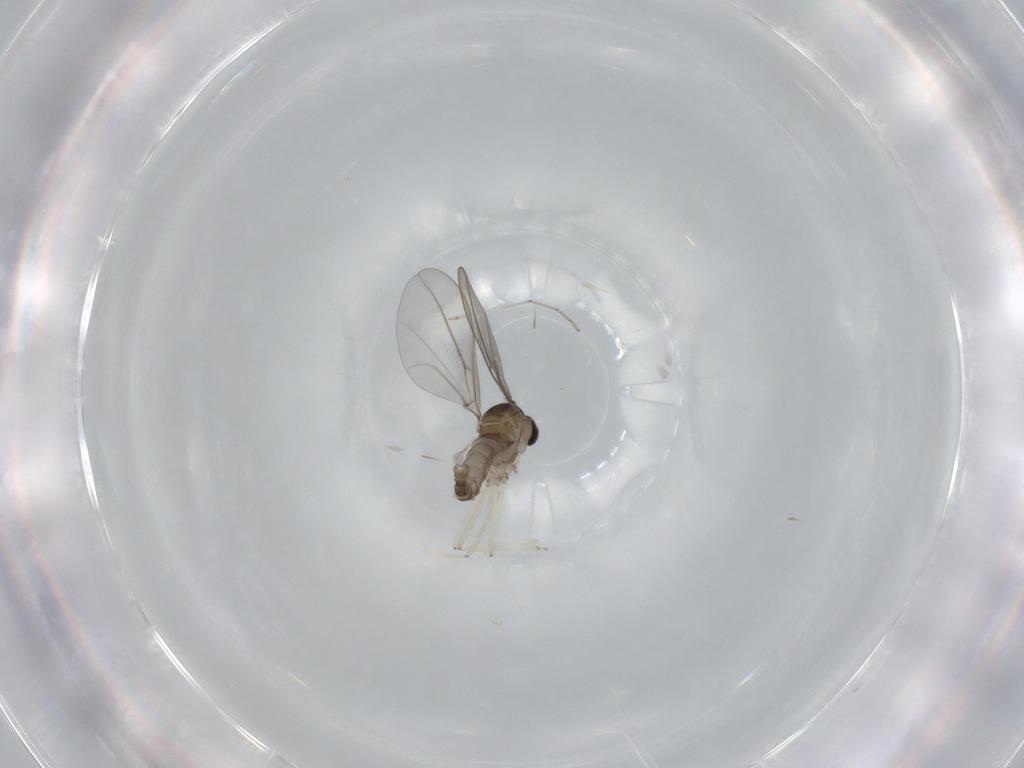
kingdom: Animalia
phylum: Arthropoda
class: Insecta
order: Diptera
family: Cecidomyiidae
